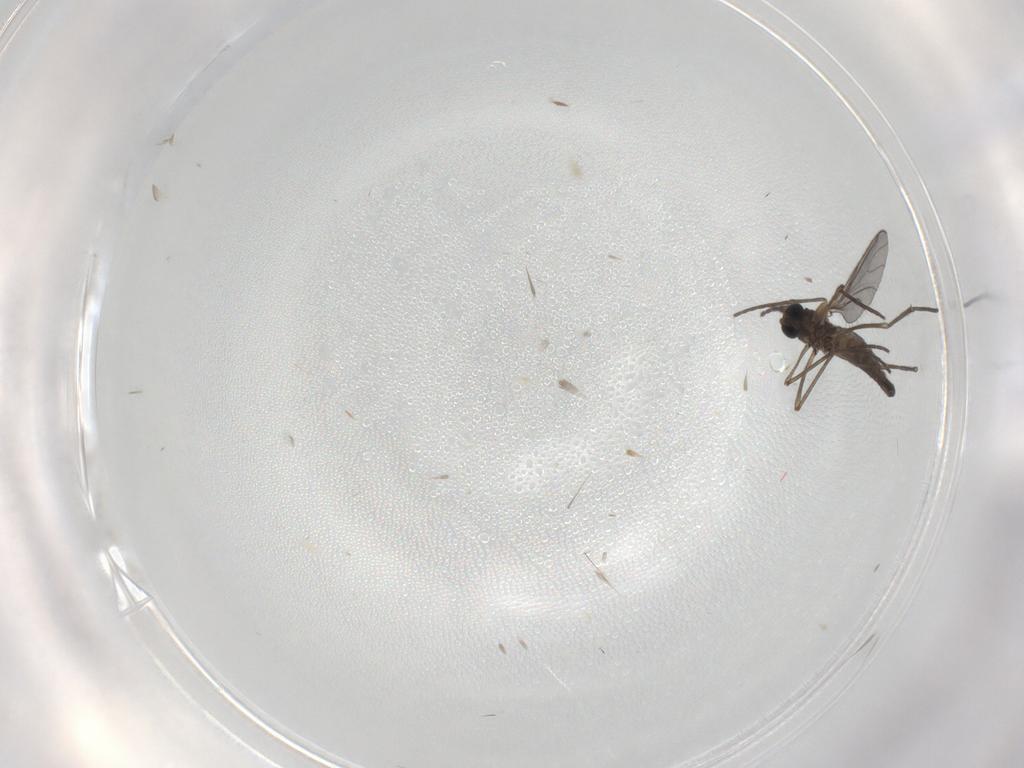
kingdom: Animalia
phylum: Arthropoda
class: Insecta
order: Diptera
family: Sciaridae
